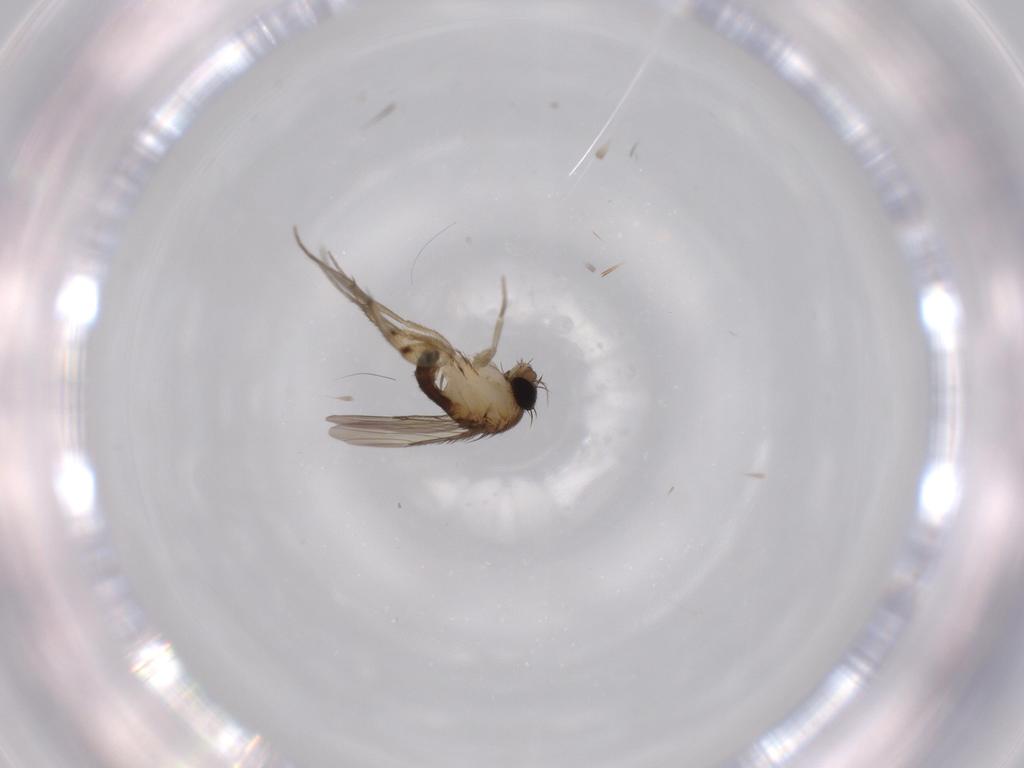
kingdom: Animalia
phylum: Arthropoda
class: Insecta
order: Diptera
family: Phoridae
